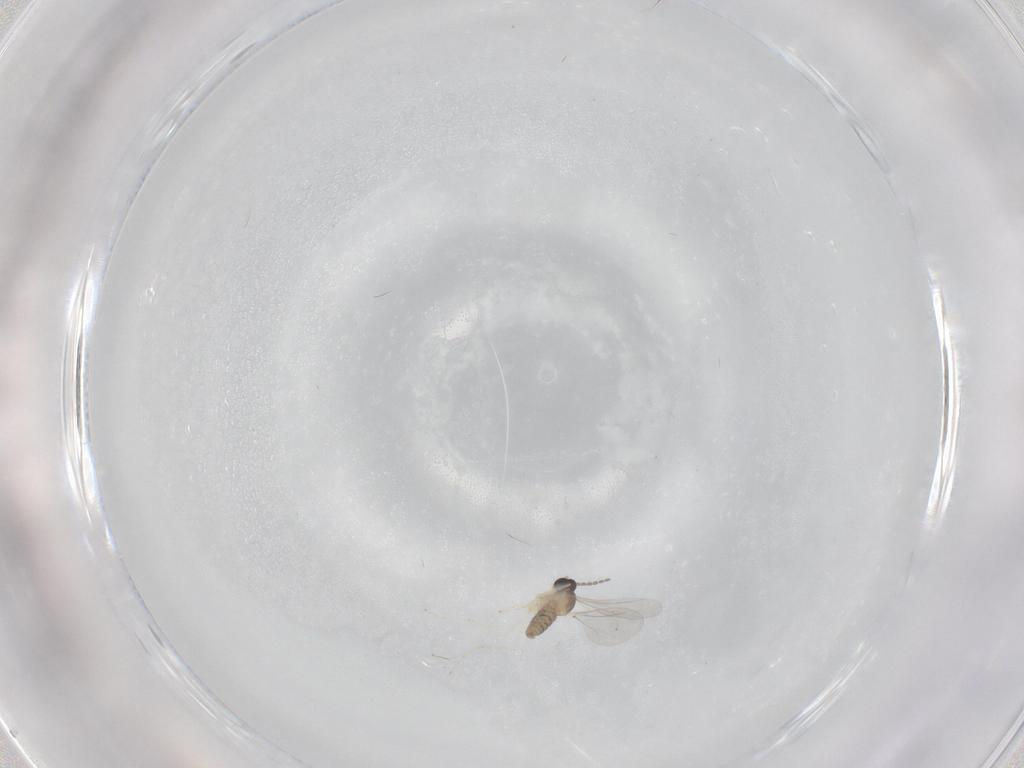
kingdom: Animalia
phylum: Arthropoda
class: Insecta
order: Diptera
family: Cecidomyiidae
